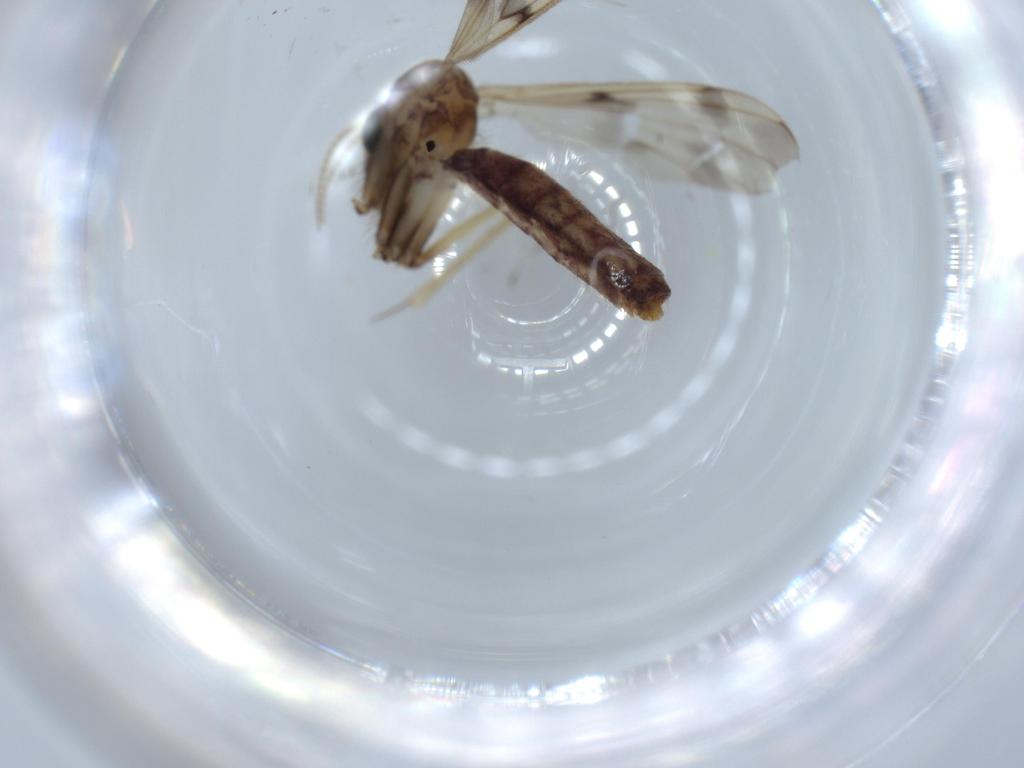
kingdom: Animalia
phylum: Arthropoda
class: Insecta
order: Diptera
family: Mycetophilidae
